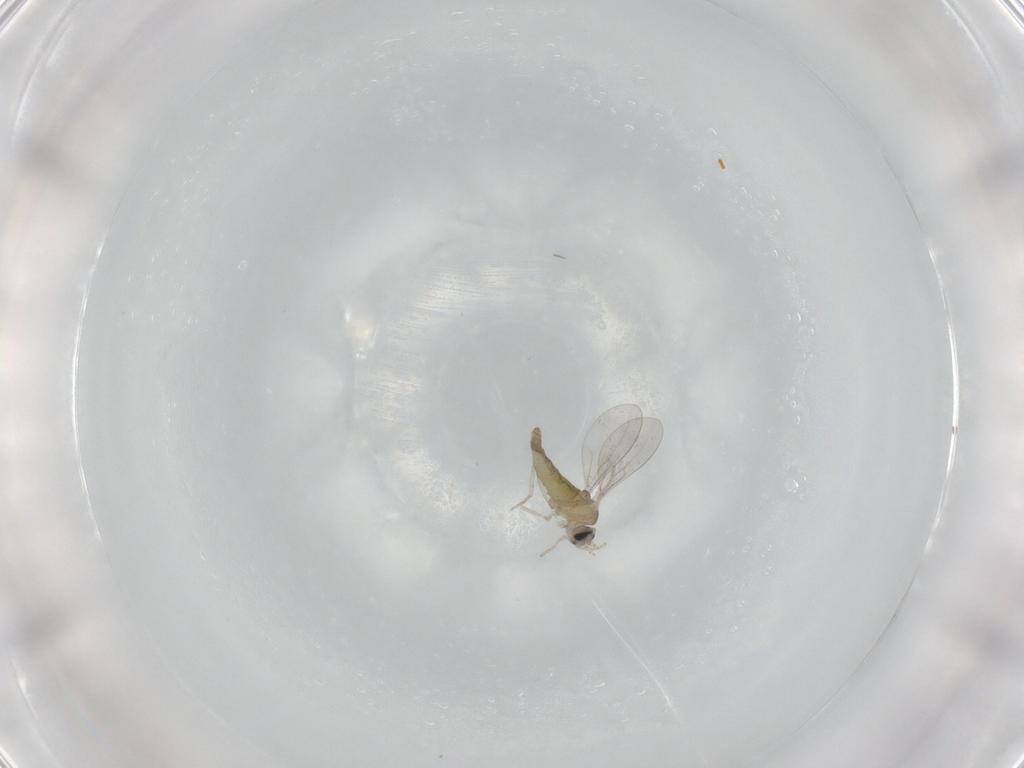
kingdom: Animalia
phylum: Arthropoda
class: Insecta
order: Diptera
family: Cecidomyiidae
